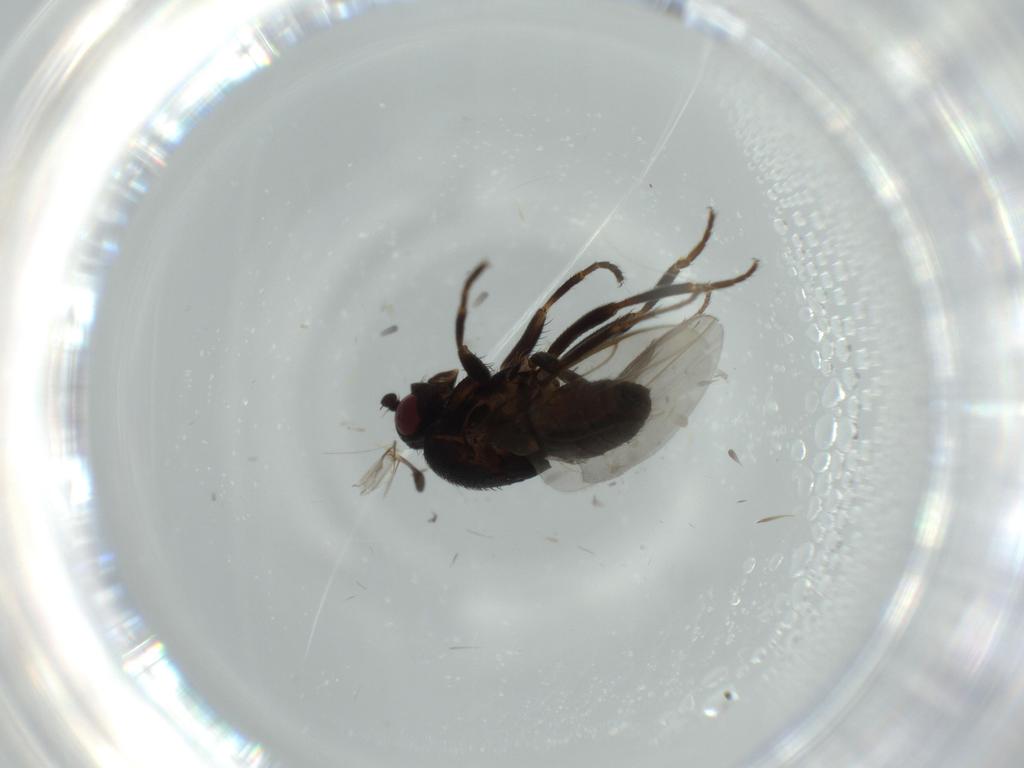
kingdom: Animalia
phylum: Arthropoda
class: Insecta
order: Diptera
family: Sphaeroceridae
